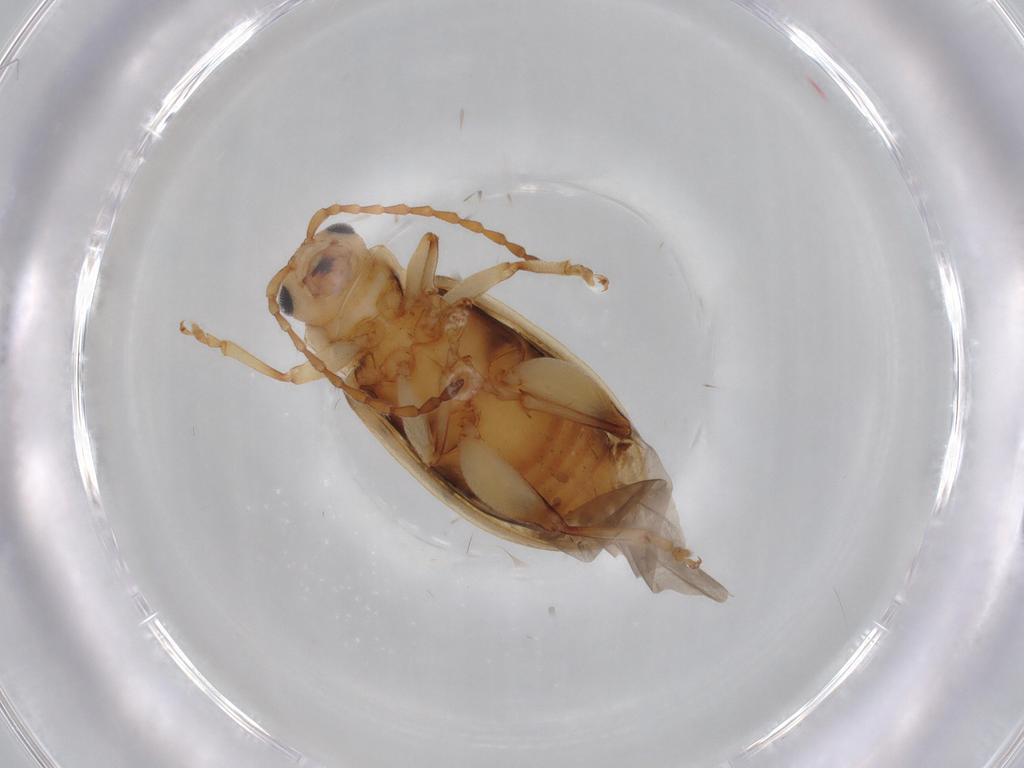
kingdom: Animalia
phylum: Arthropoda
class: Insecta
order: Coleoptera
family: Chrysomelidae
